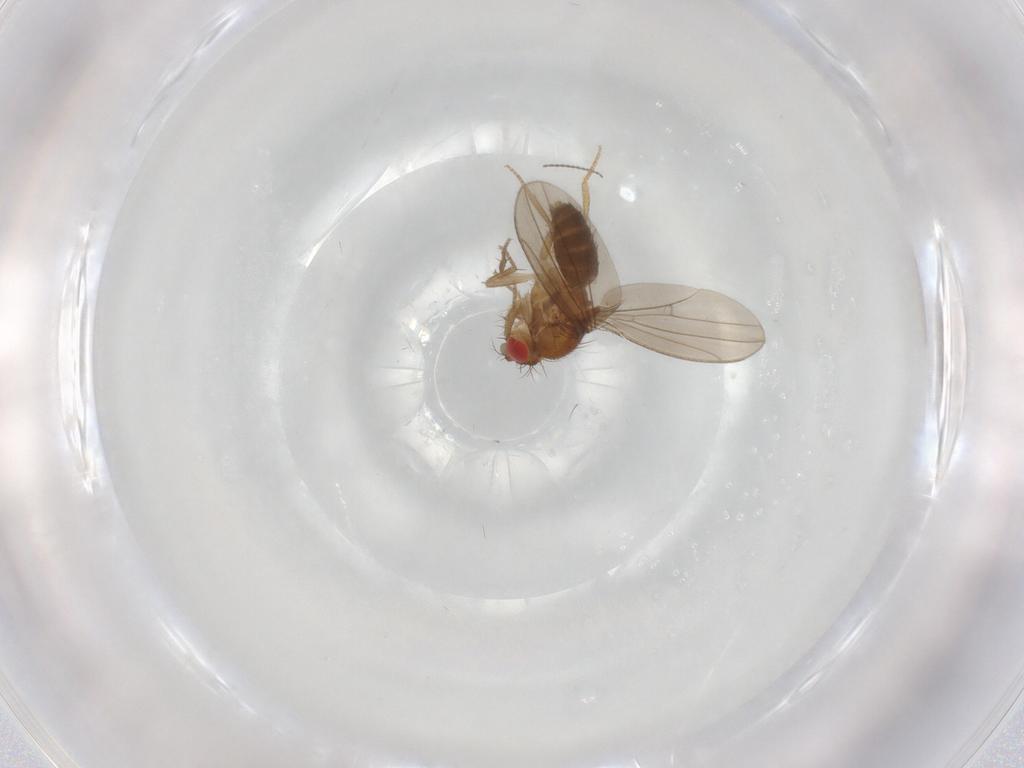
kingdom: Animalia
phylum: Arthropoda
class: Insecta
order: Diptera
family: Drosophilidae
